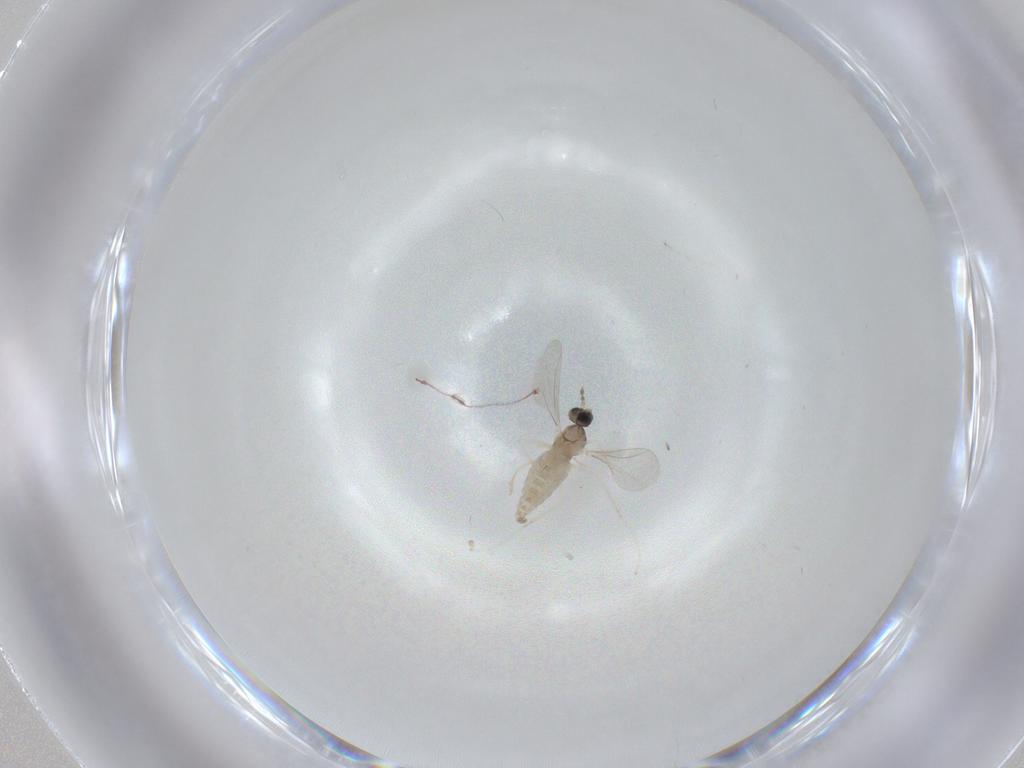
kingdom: Animalia
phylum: Arthropoda
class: Insecta
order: Diptera
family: Cecidomyiidae
